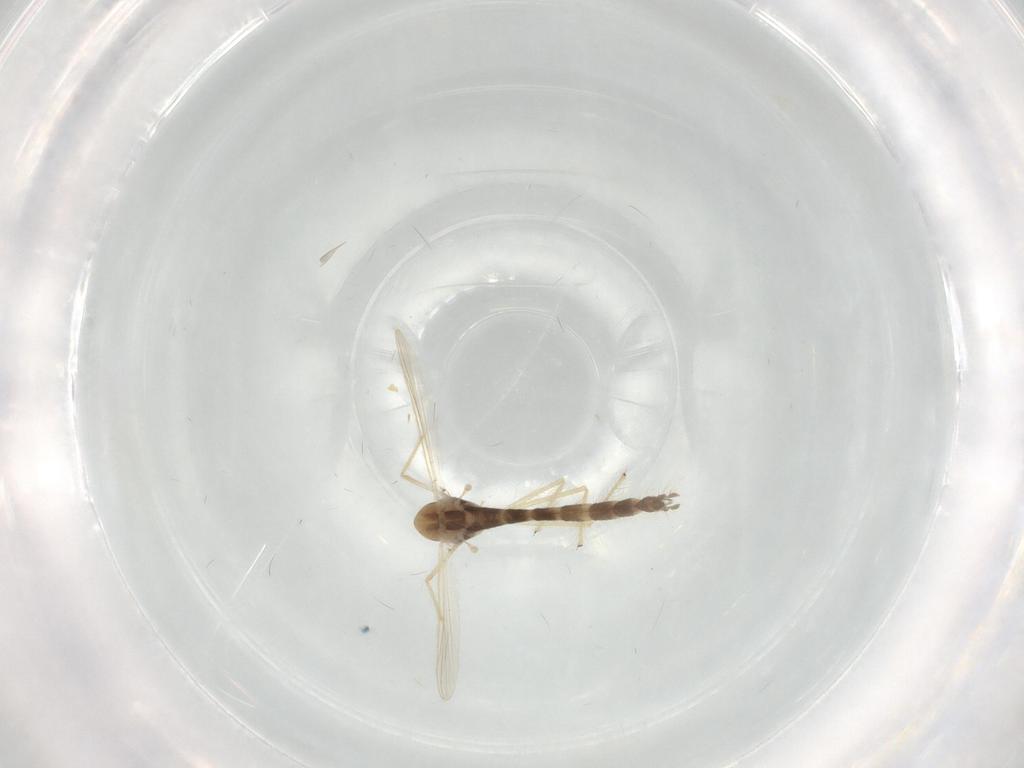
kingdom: Animalia
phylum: Arthropoda
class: Insecta
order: Diptera
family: Chironomidae
